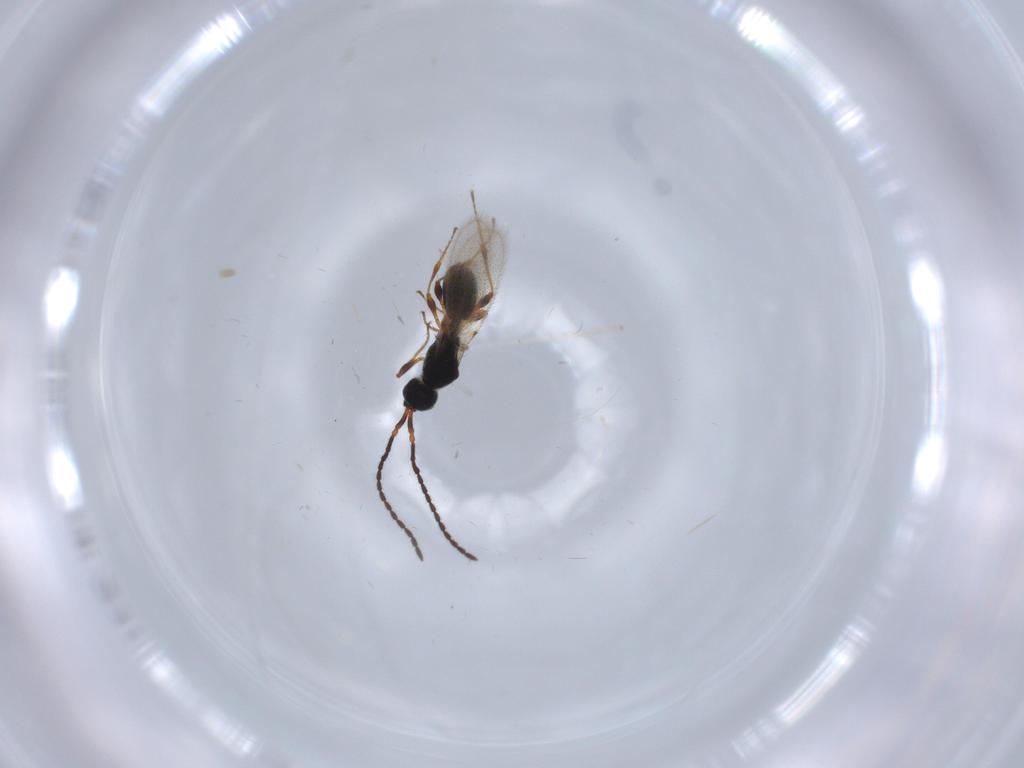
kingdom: Animalia
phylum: Arthropoda
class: Insecta
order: Hymenoptera
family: Diapriidae
